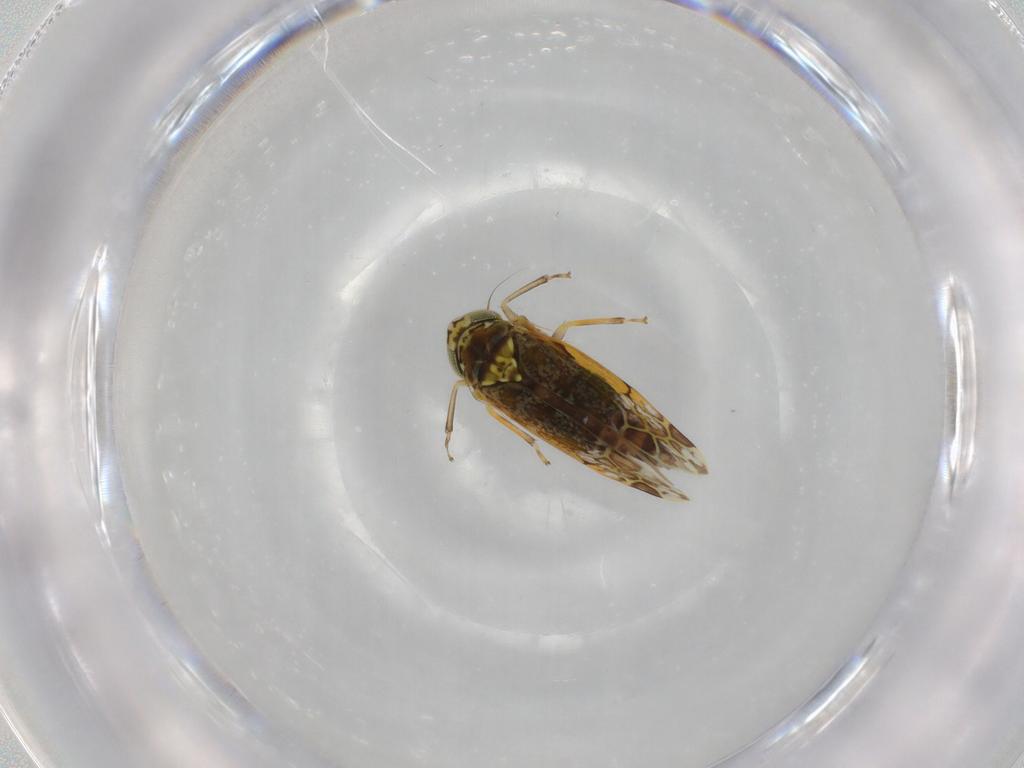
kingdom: Animalia
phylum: Arthropoda
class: Insecta
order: Hemiptera
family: Cicadellidae
